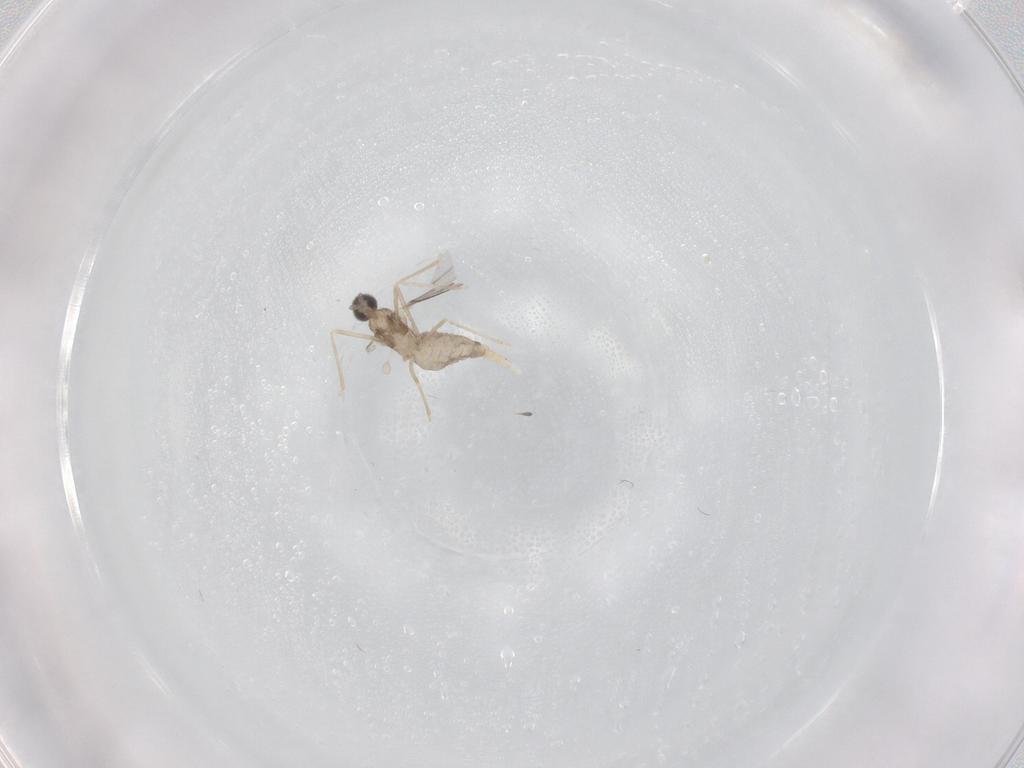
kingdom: Animalia
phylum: Arthropoda
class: Insecta
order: Diptera
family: Cecidomyiidae
